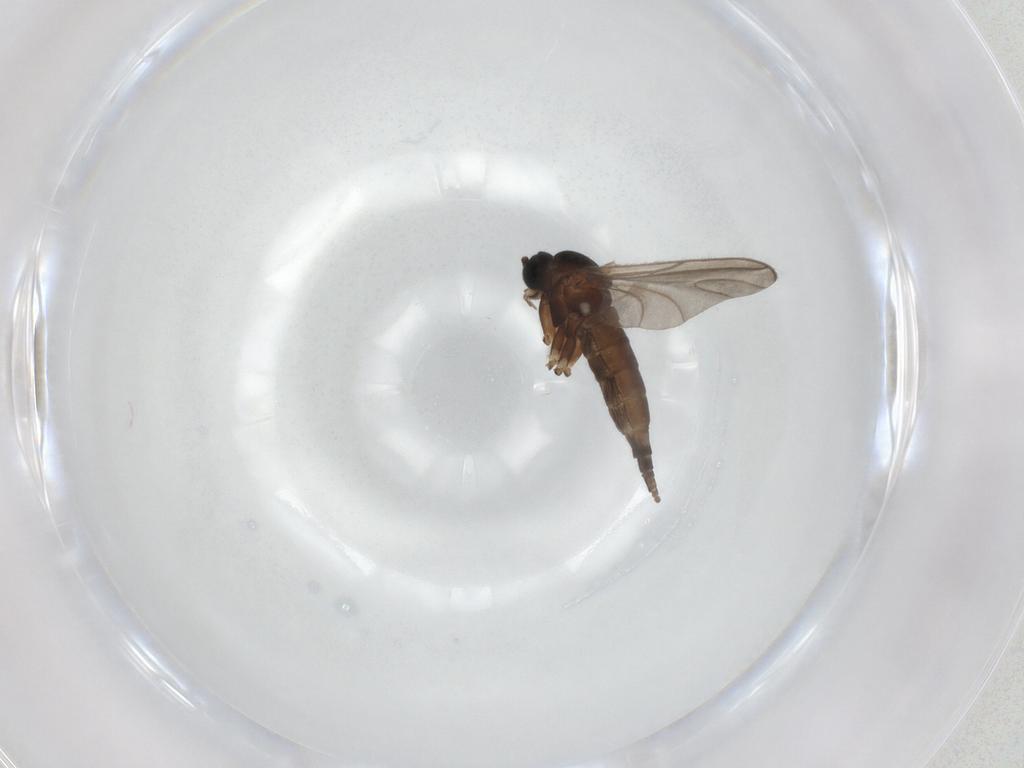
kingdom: Animalia
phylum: Arthropoda
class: Insecta
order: Diptera
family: Sciaridae
